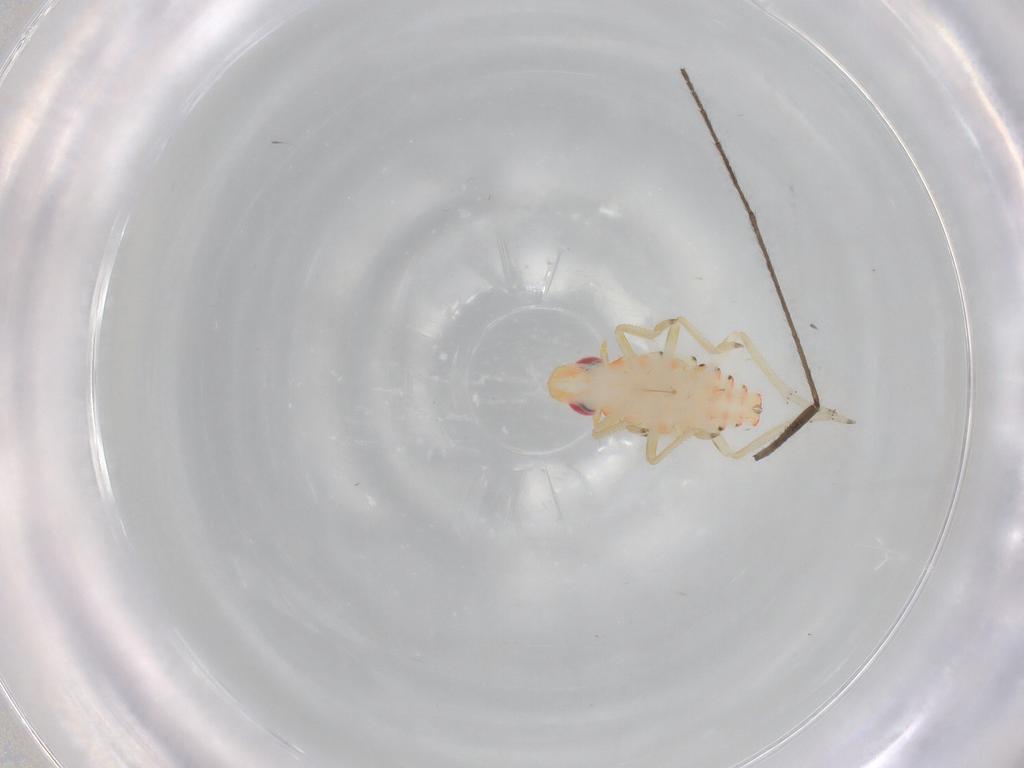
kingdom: Animalia
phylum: Arthropoda
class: Insecta
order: Hemiptera
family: Tropiduchidae
